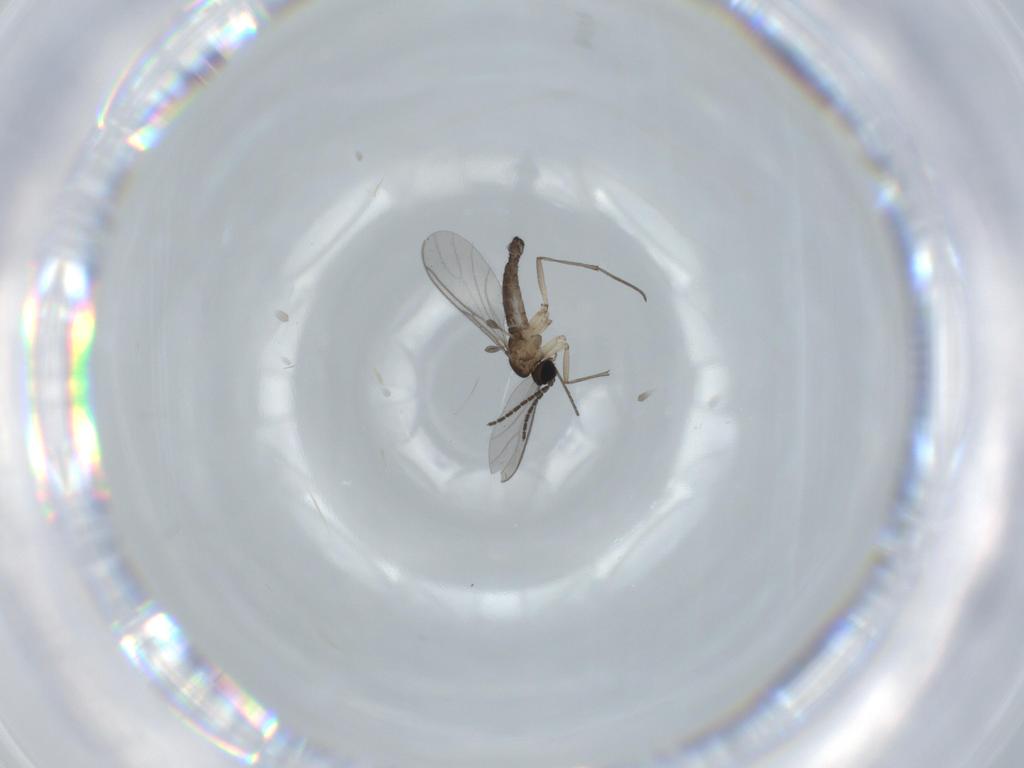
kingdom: Animalia
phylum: Arthropoda
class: Insecta
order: Diptera
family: Sciaridae
